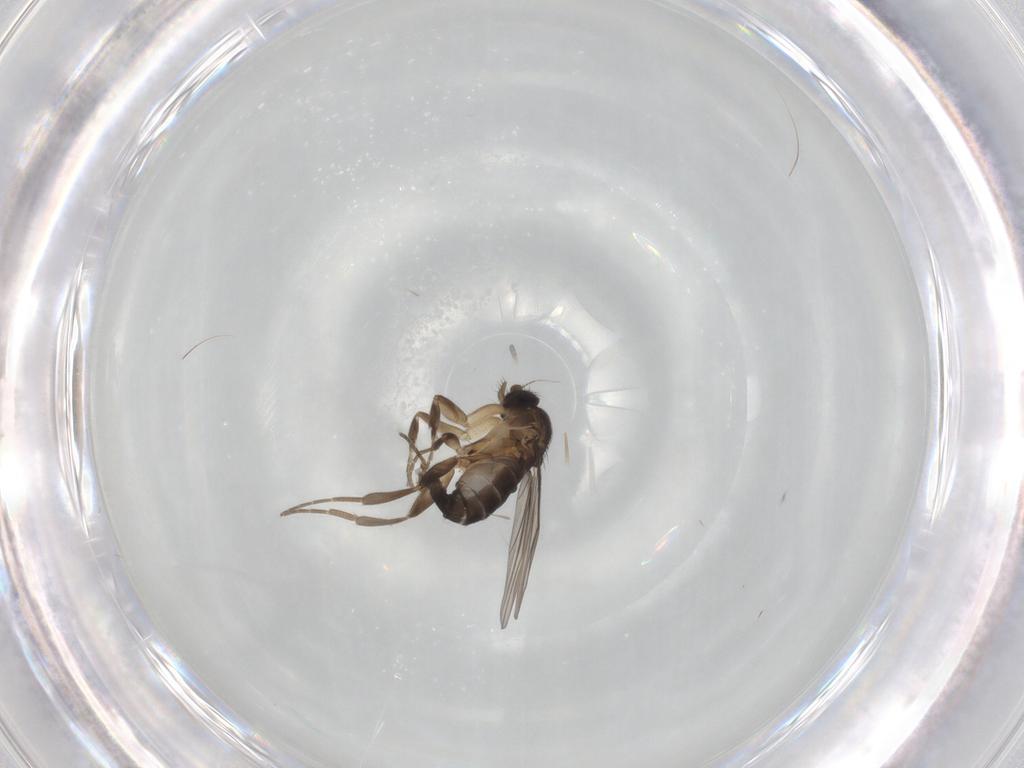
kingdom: Animalia
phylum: Arthropoda
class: Insecta
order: Diptera
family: Phoridae
